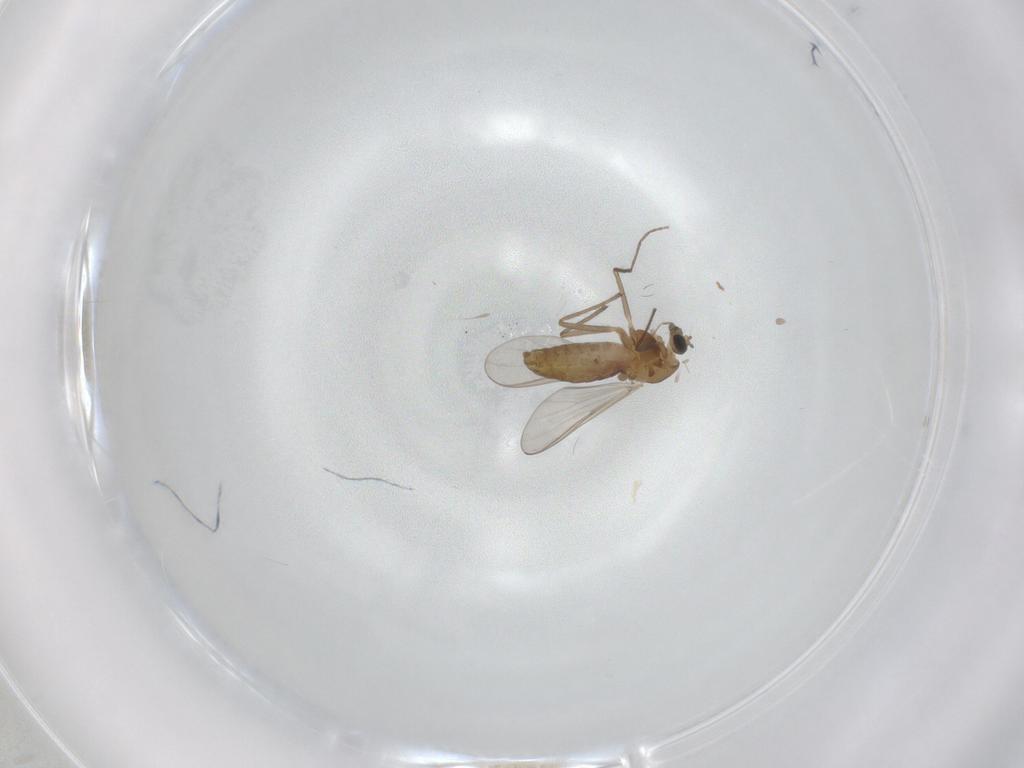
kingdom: Animalia
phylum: Arthropoda
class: Insecta
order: Diptera
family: Chironomidae
